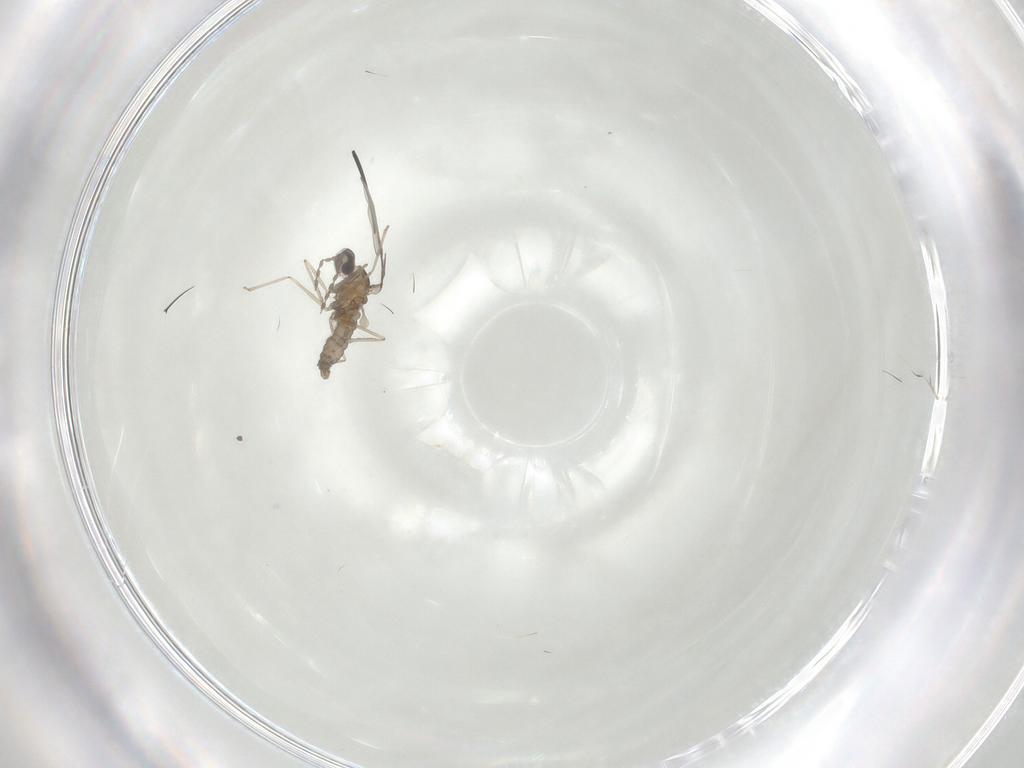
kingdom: Animalia
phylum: Arthropoda
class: Insecta
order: Diptera
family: Cecidomyiidae
